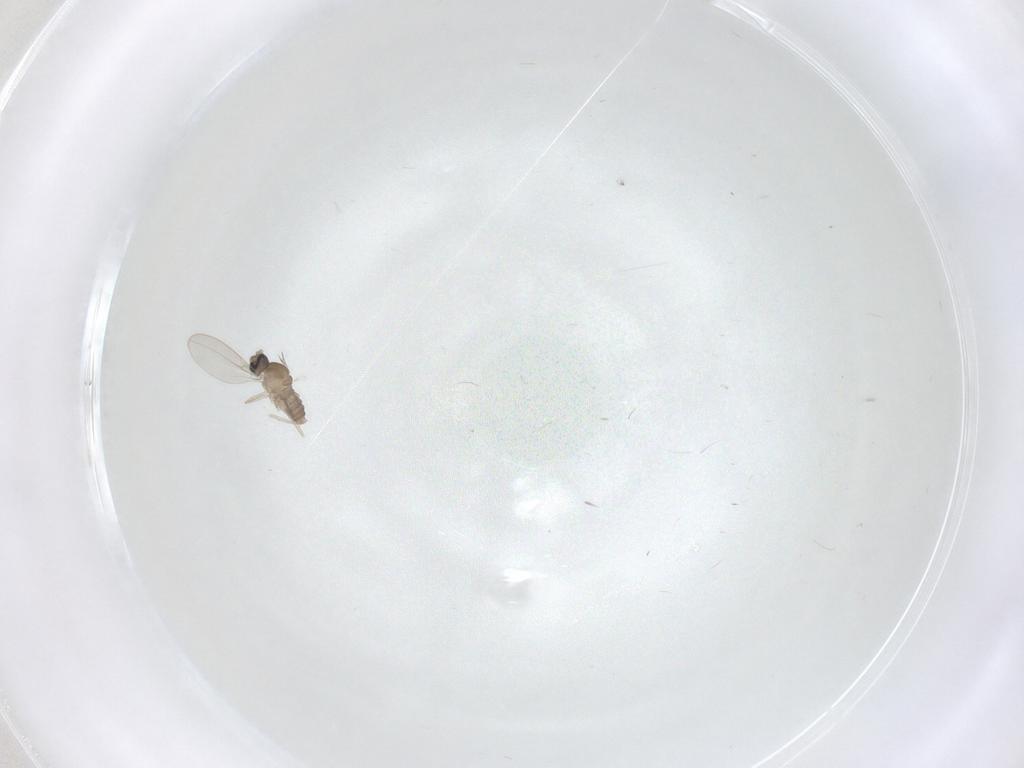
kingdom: Animalia
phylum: Arthropoda
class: Insecta
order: Diptera
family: Cecidomyiidae
